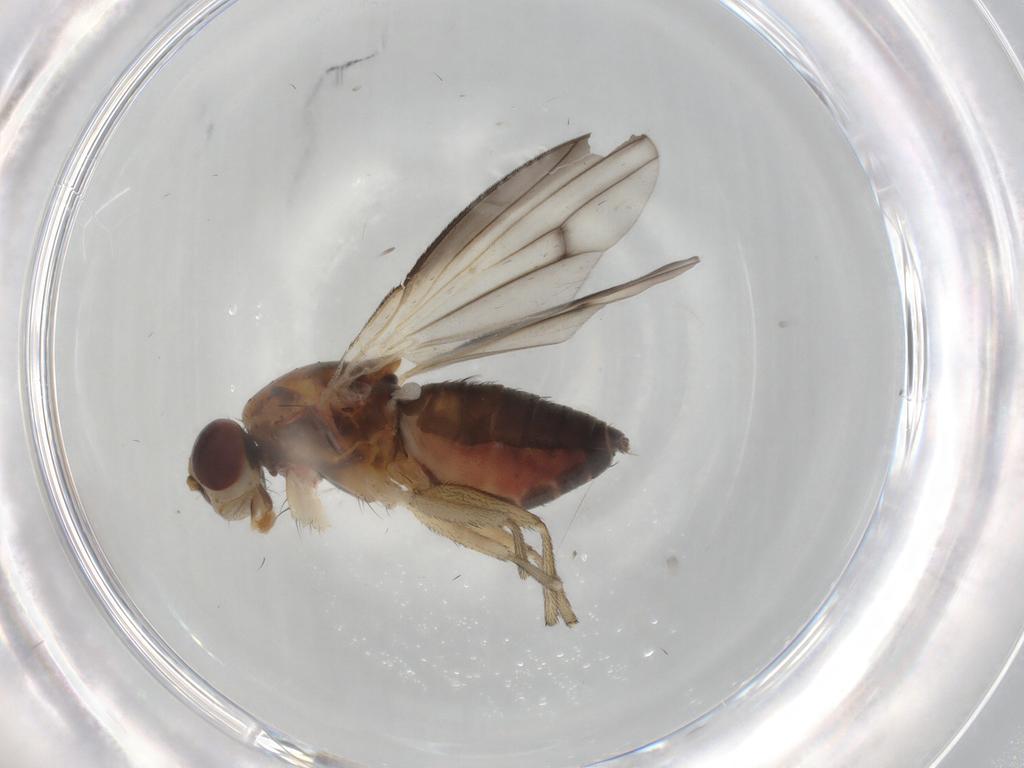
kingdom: Animalia
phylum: Arthropoda
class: Insecta
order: Diptera
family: Heleomyzidae
